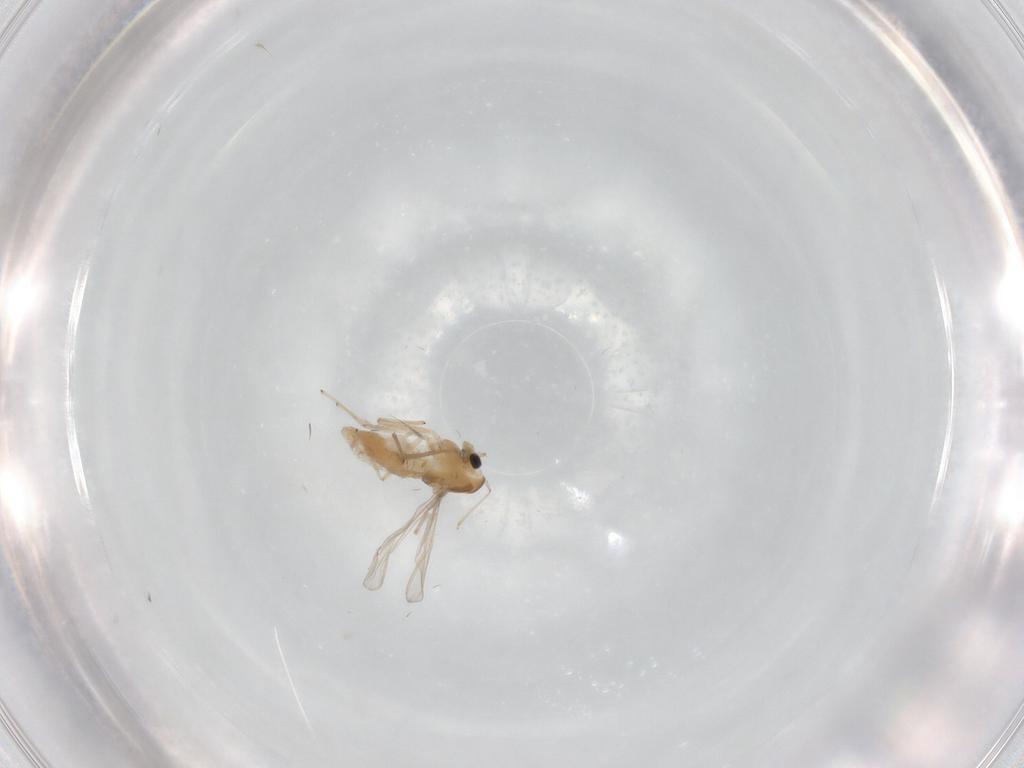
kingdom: Animalia
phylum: Arthropoda
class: Insecta
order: Diptera
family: Chironomidae
